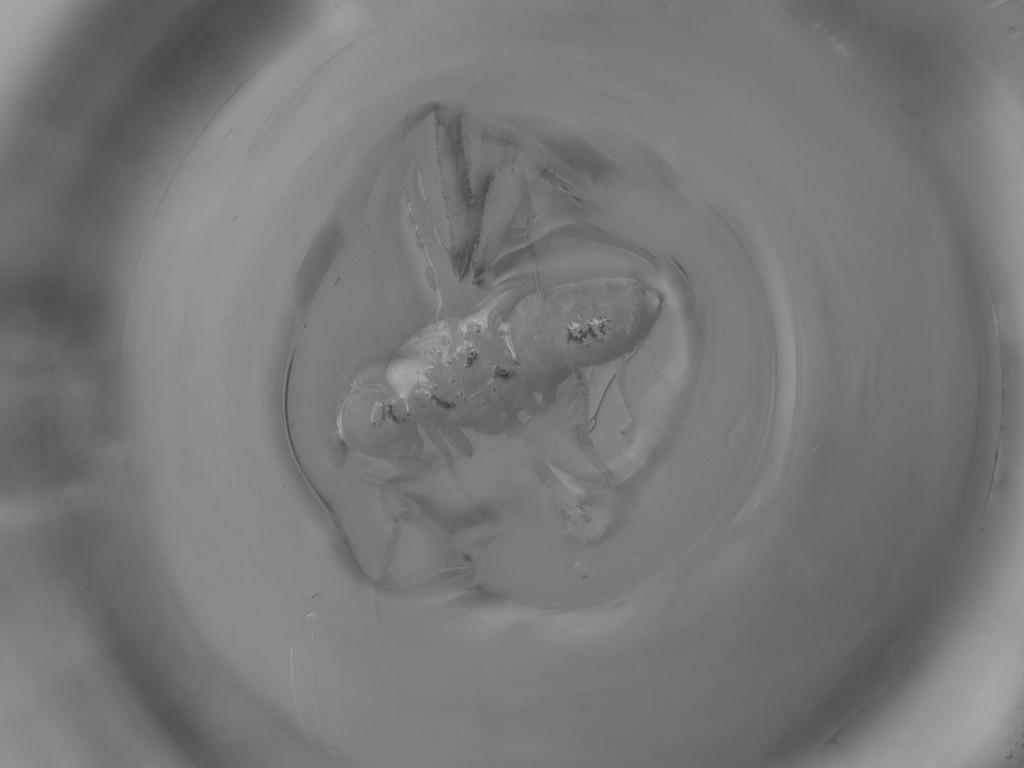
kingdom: Animalia
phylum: Arthropoda
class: Insecta
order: Diptera
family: Lauxaniidae
